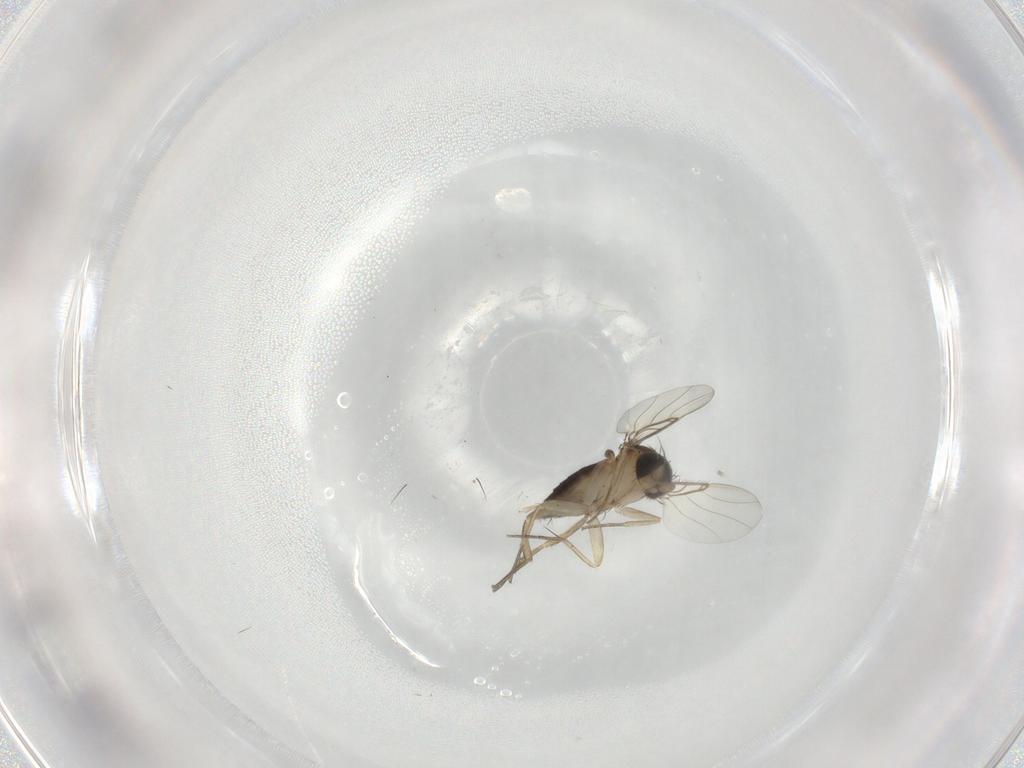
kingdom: Animalia
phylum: Arthropoda
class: Insecta
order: Diptera
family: Phoridae
